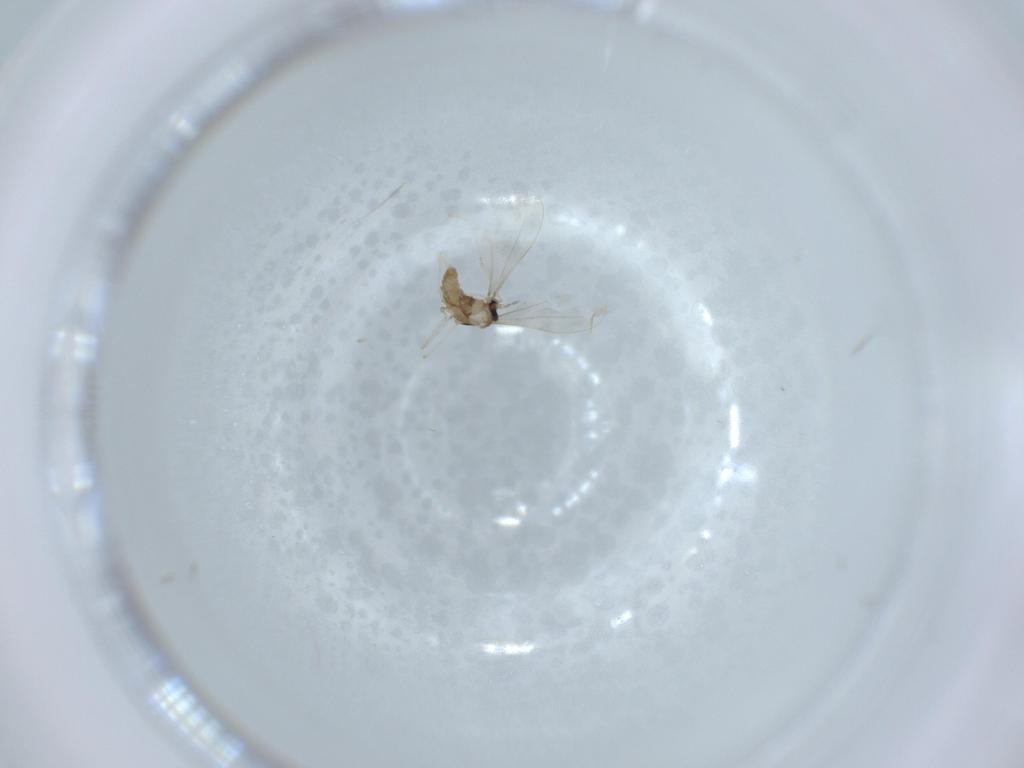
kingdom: Animalia
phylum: Arthropoda
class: Insecta
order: Diptera
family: Cecidomyiidae
